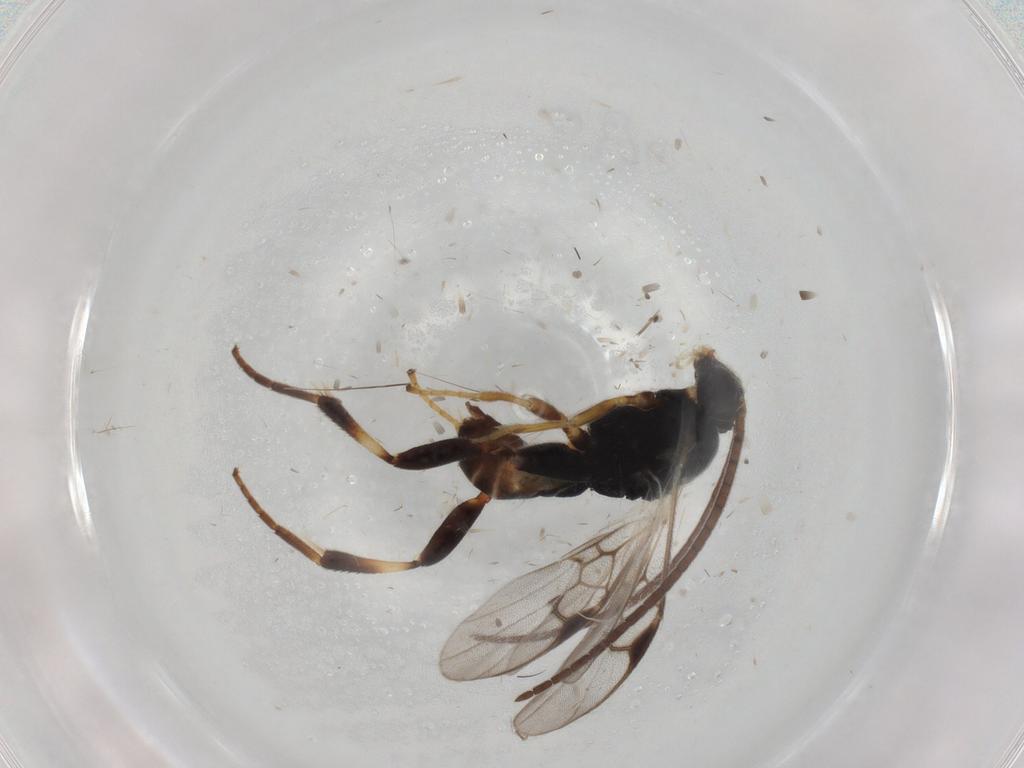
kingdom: Animalia
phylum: Arthropoda
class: Insecta
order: Hymenoptera
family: Braconidae
